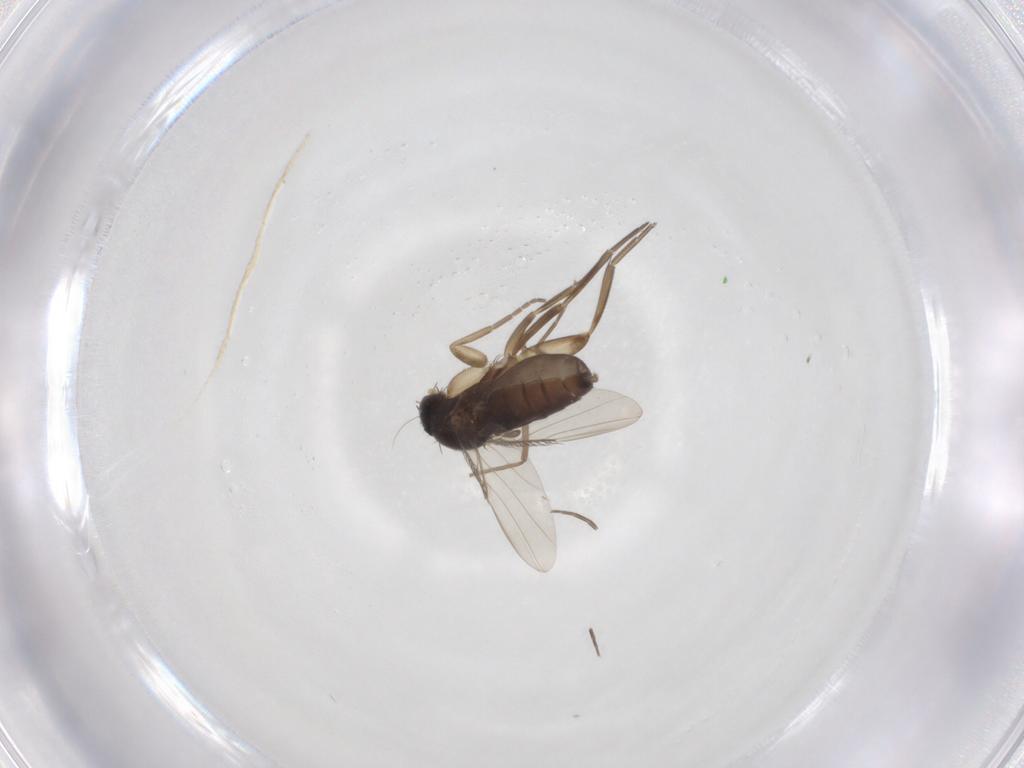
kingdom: Animalia
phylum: Arthropoda
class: Insecta
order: Diptera
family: Phoridae
